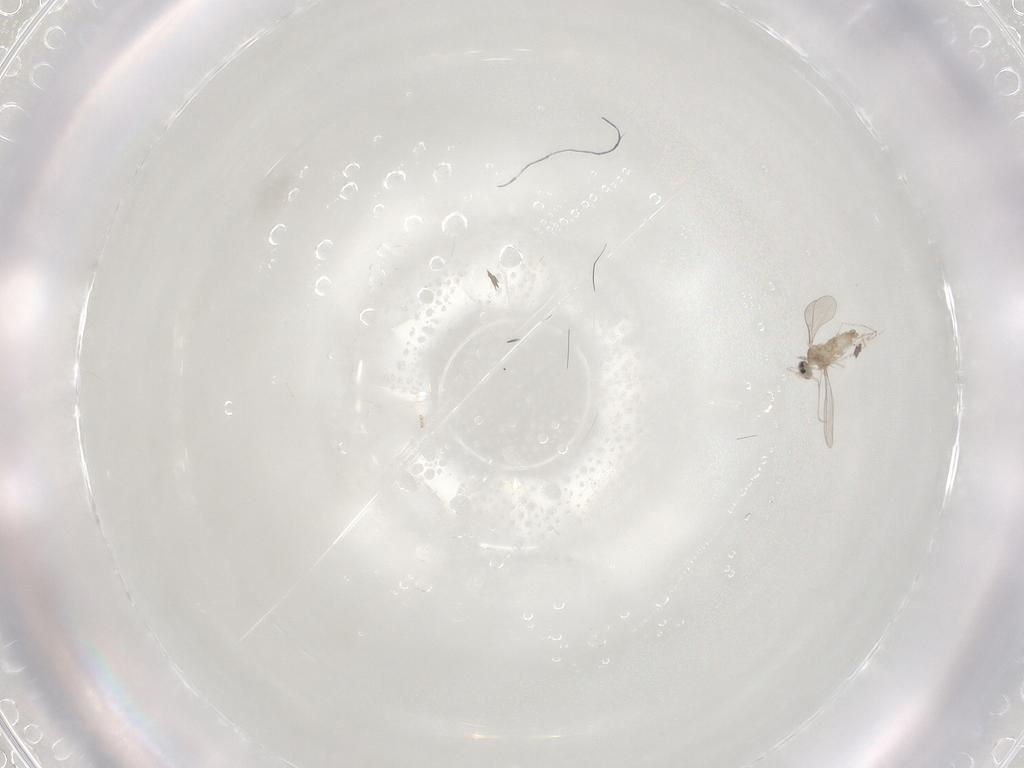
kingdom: Animalia
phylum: Arthropoda
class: Insecta
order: Diptera
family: Cecidomyiidae
